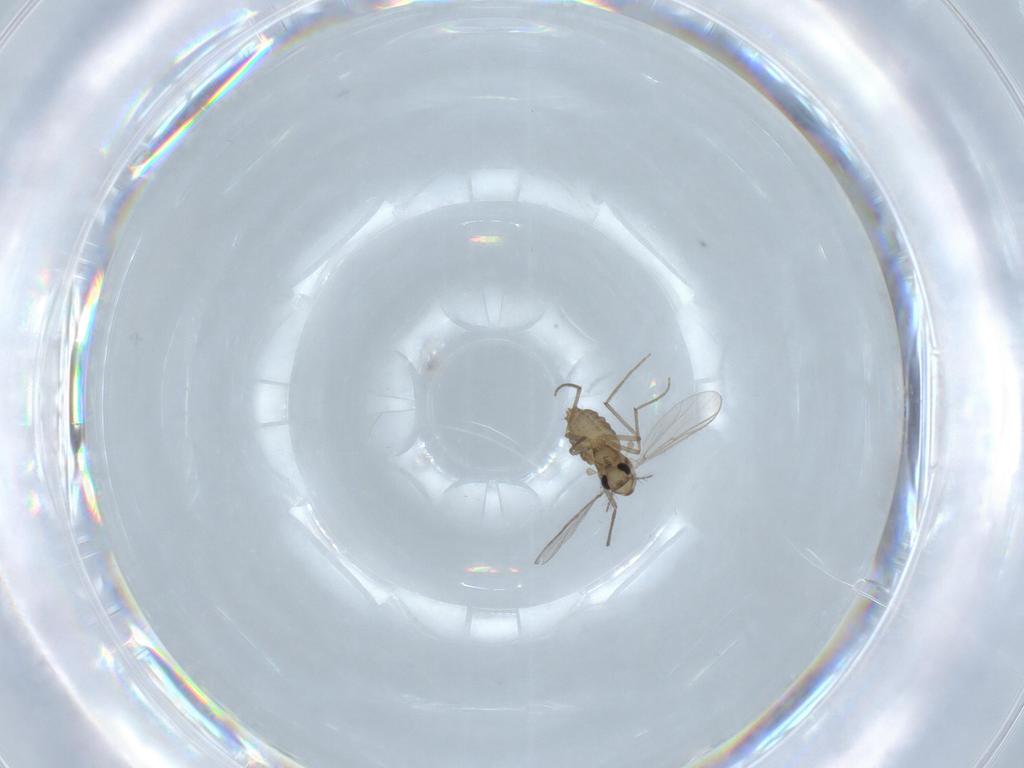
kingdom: Animalia
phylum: Arthropoda
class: Insecta
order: Diptera
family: Chironomidae
